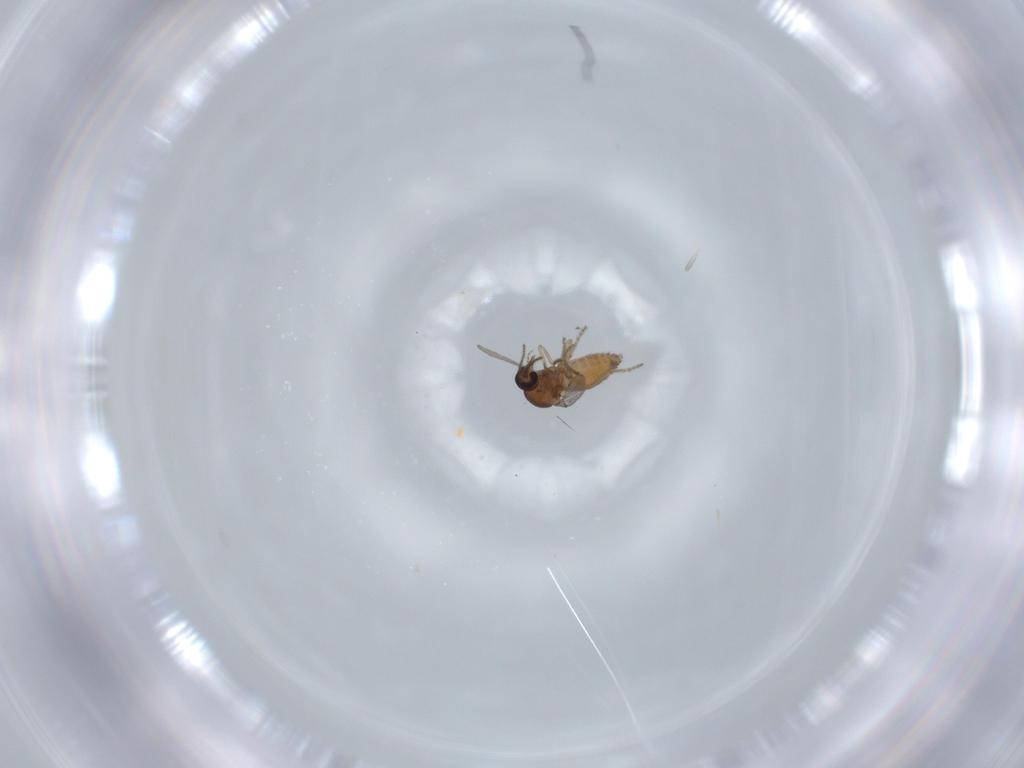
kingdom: Animalia
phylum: Arthropoda
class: Insecta
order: Diptera
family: Ceratopogonidae
